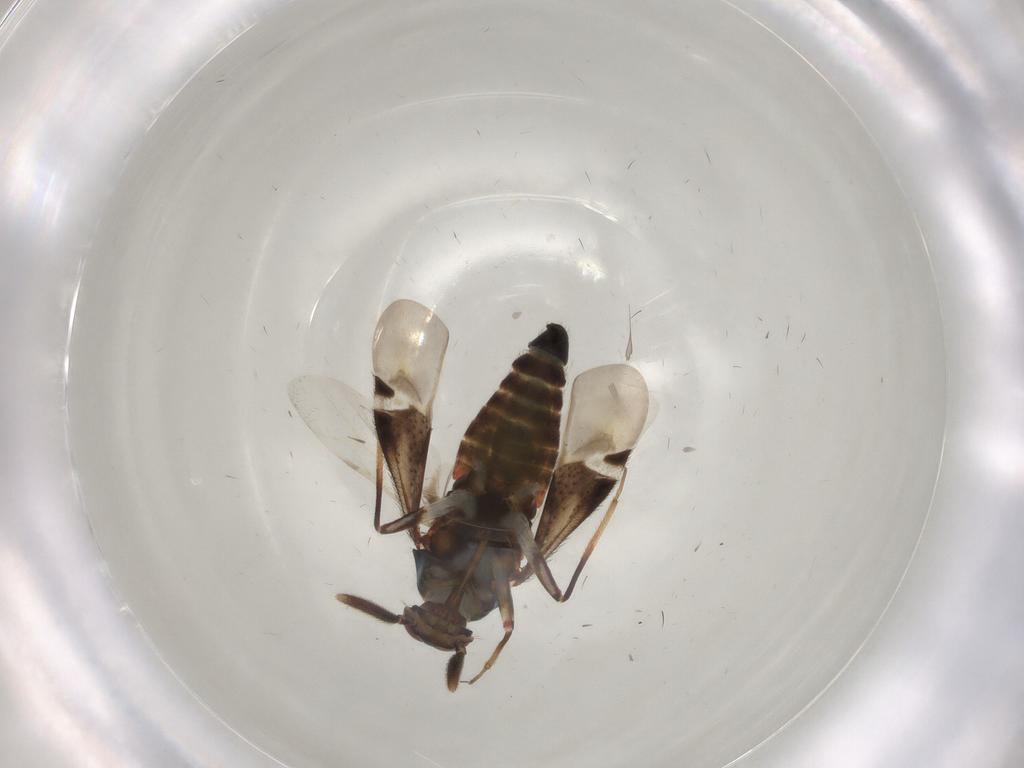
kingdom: Animalia
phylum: Arthropoda
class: Insecta
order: Hemiptera
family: Miridae
